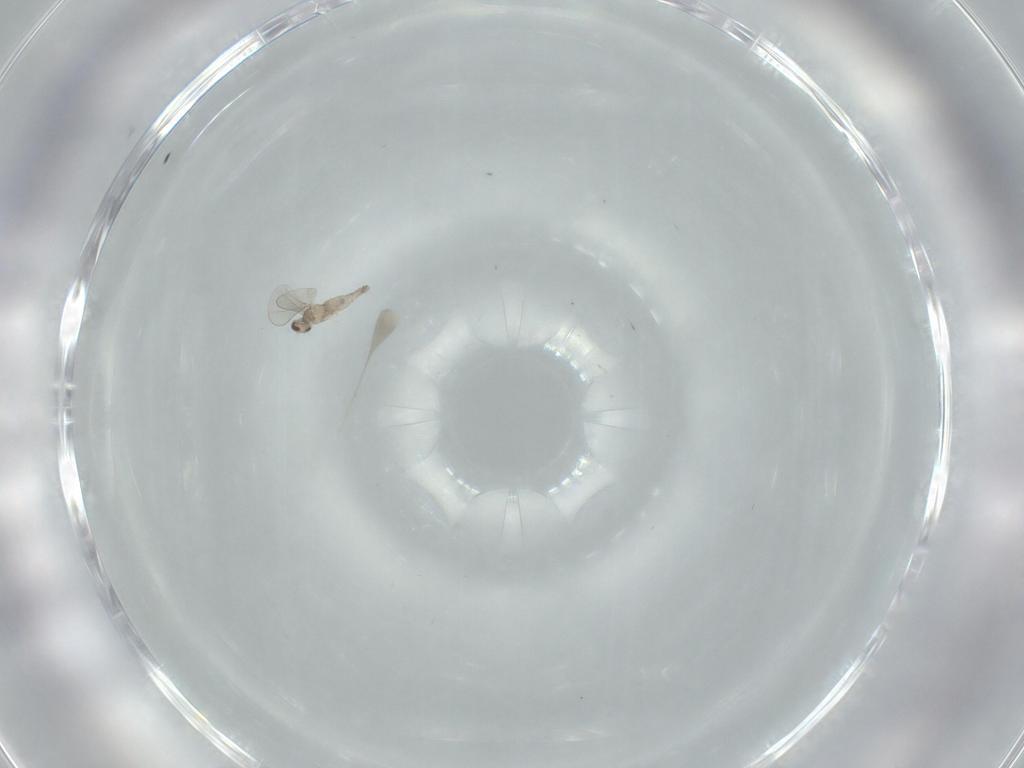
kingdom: Animalia
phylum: Arthropoda
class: Insecta
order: Diptera
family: Cecidomyiidae
